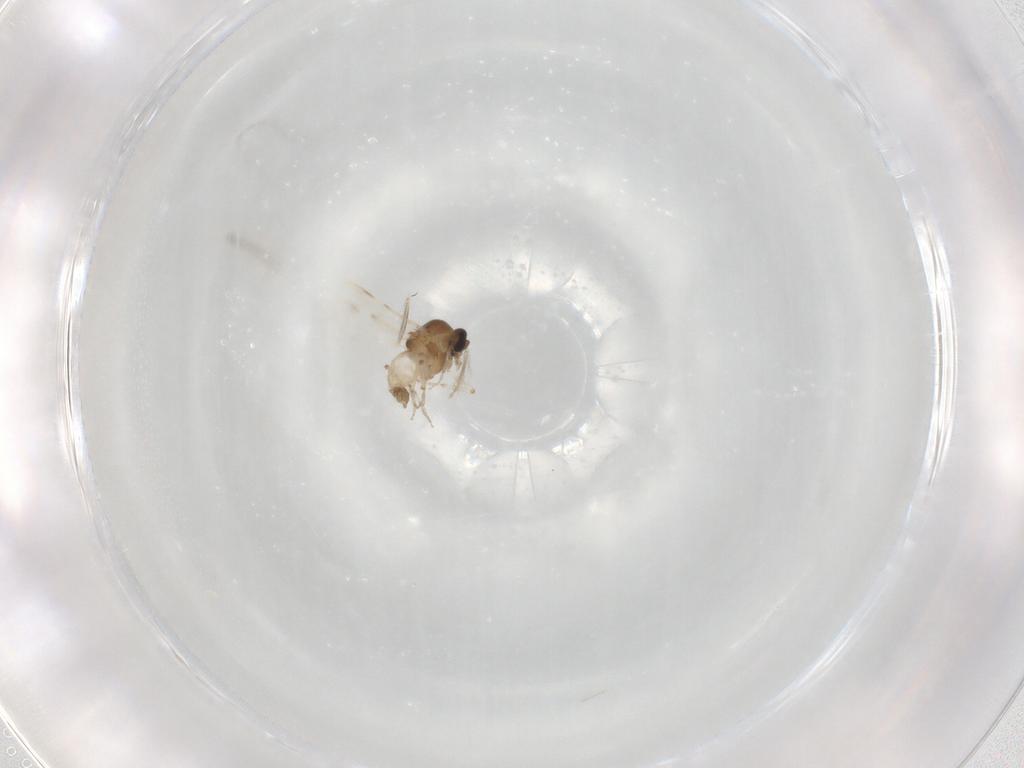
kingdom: Animalia
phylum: Arthropoda
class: Insecta
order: Diptera
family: Ceratopogonidae
